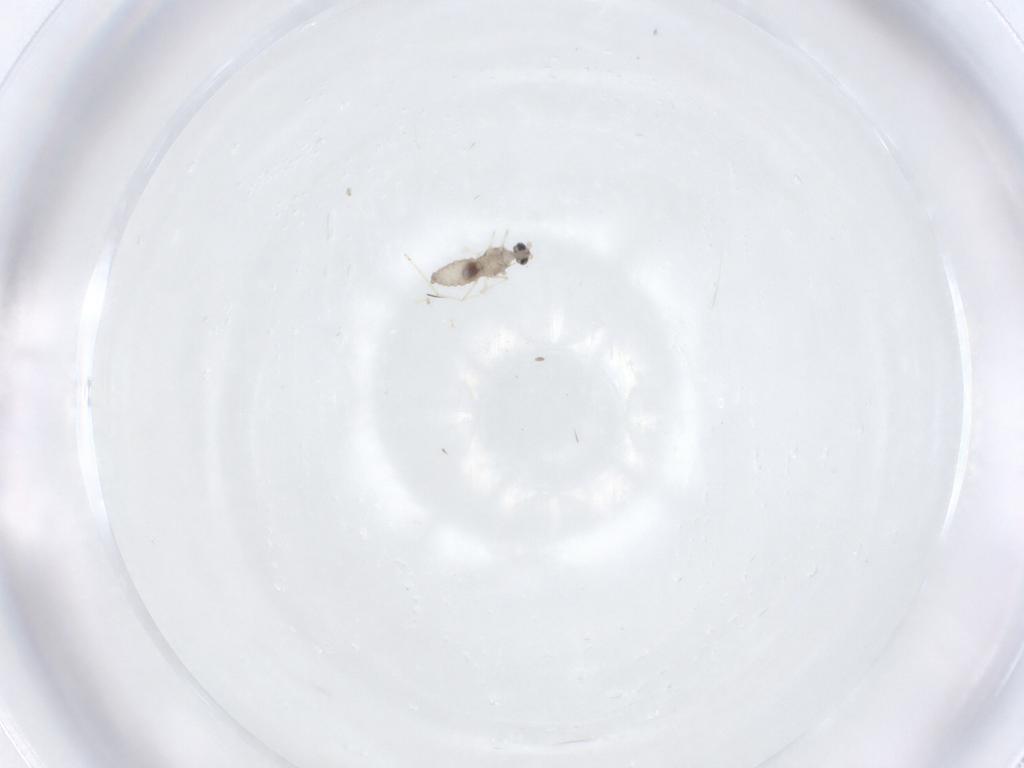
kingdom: Animalia
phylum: Arthropoda
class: Insecta
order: Diptera
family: Cecidomyiidae
